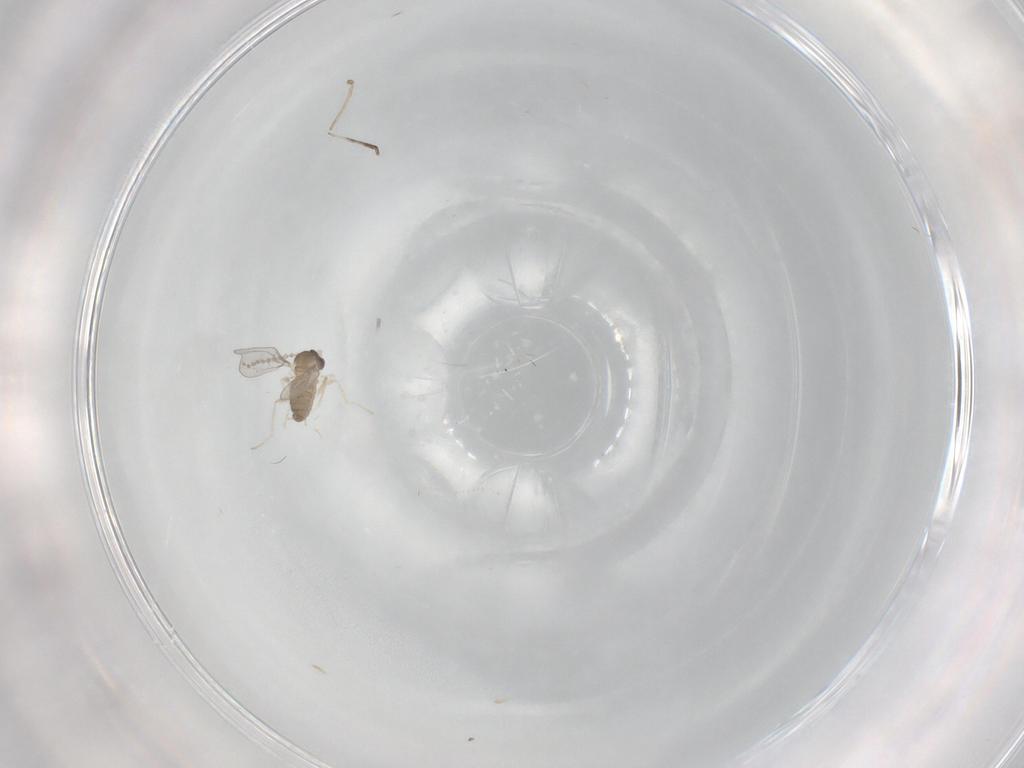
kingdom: Animalia
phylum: Arthropoda
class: Insecta
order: Diptera
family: Cecidomyiidae
